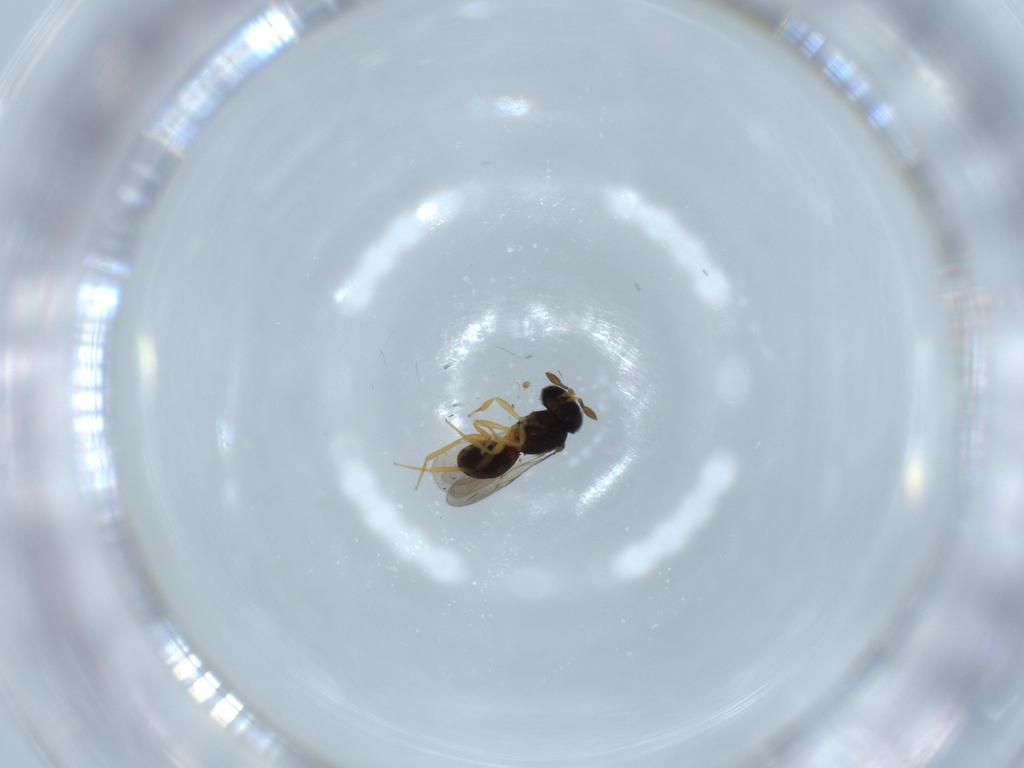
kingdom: Animalia
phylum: Arthropoda
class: Insecta
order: Hymenoptera
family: Scelionidae
